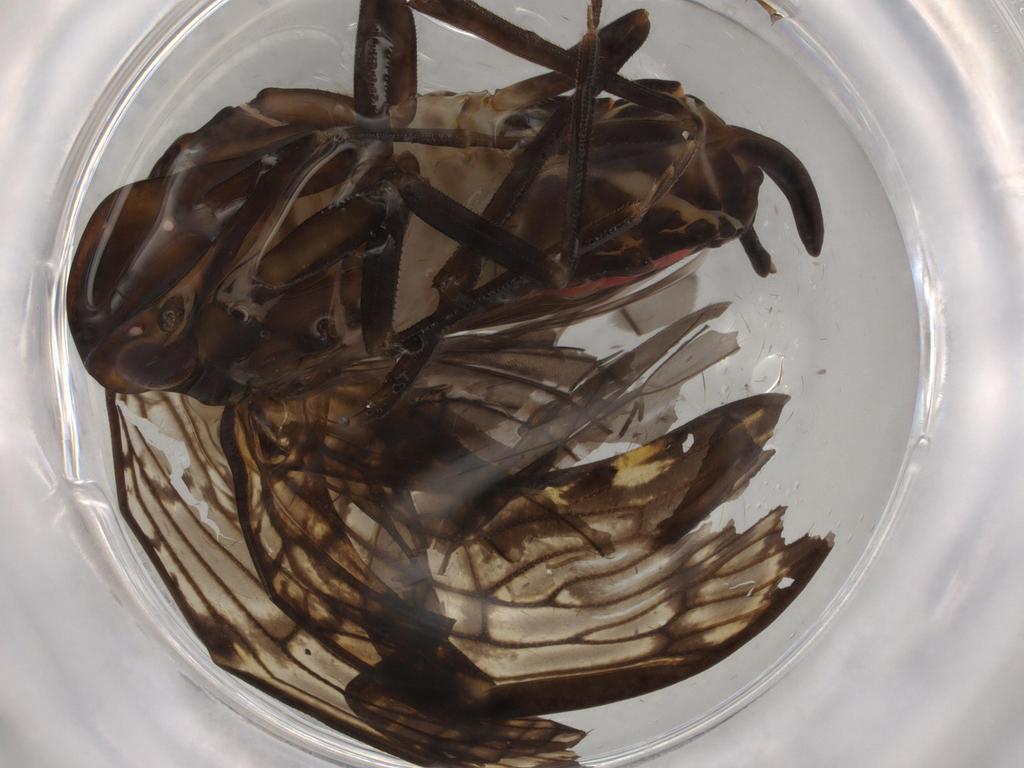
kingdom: Animalia
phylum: Arthropoda
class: Insecta
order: Hemiptera
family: Cixiidae
